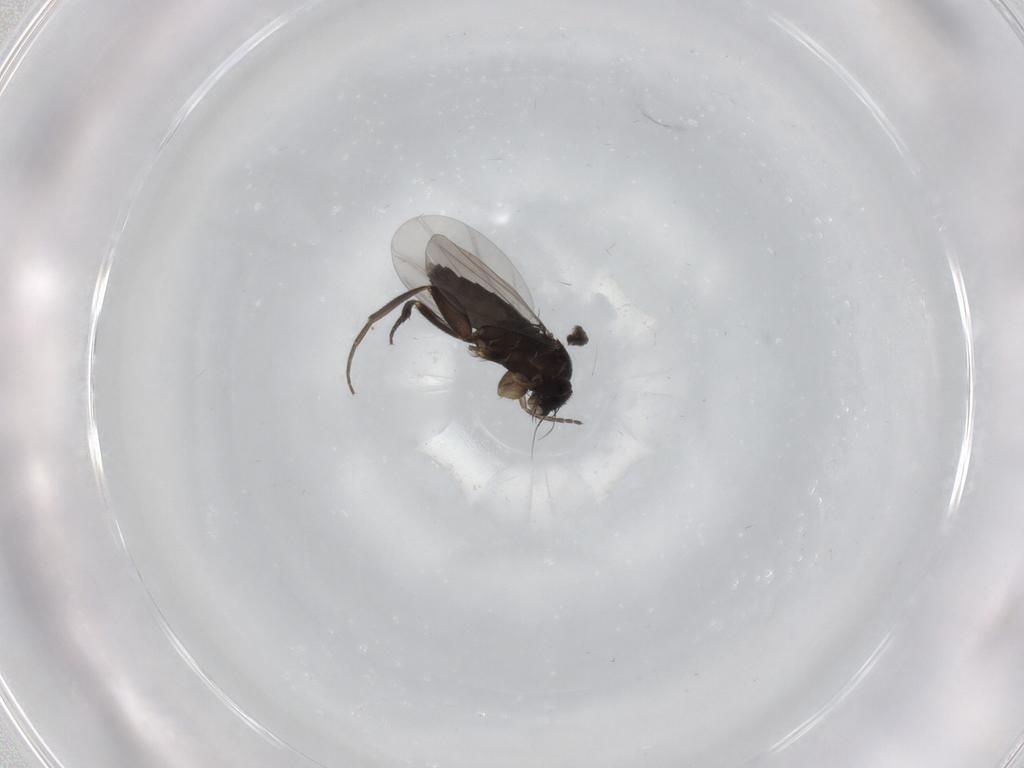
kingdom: Animalia
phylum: Arthropoda
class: Insecta
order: Diptera
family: Phoridae
